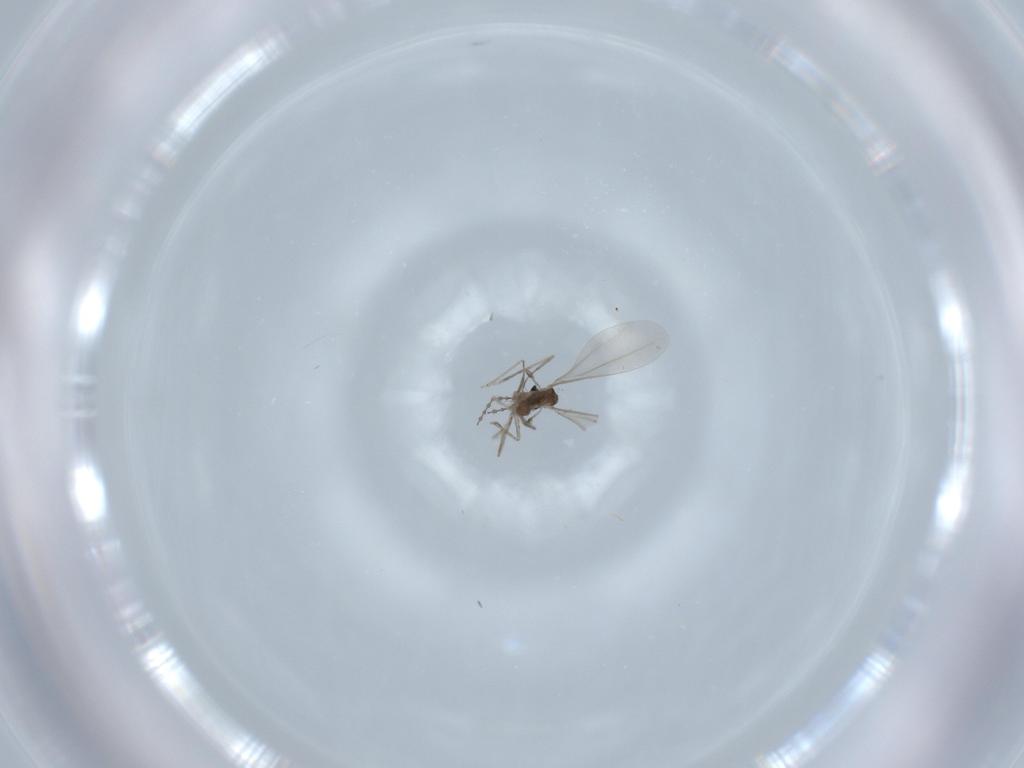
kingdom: Animalia
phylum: Arthropoda
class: Insecta
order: Diptera
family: Cecidomyiidae
